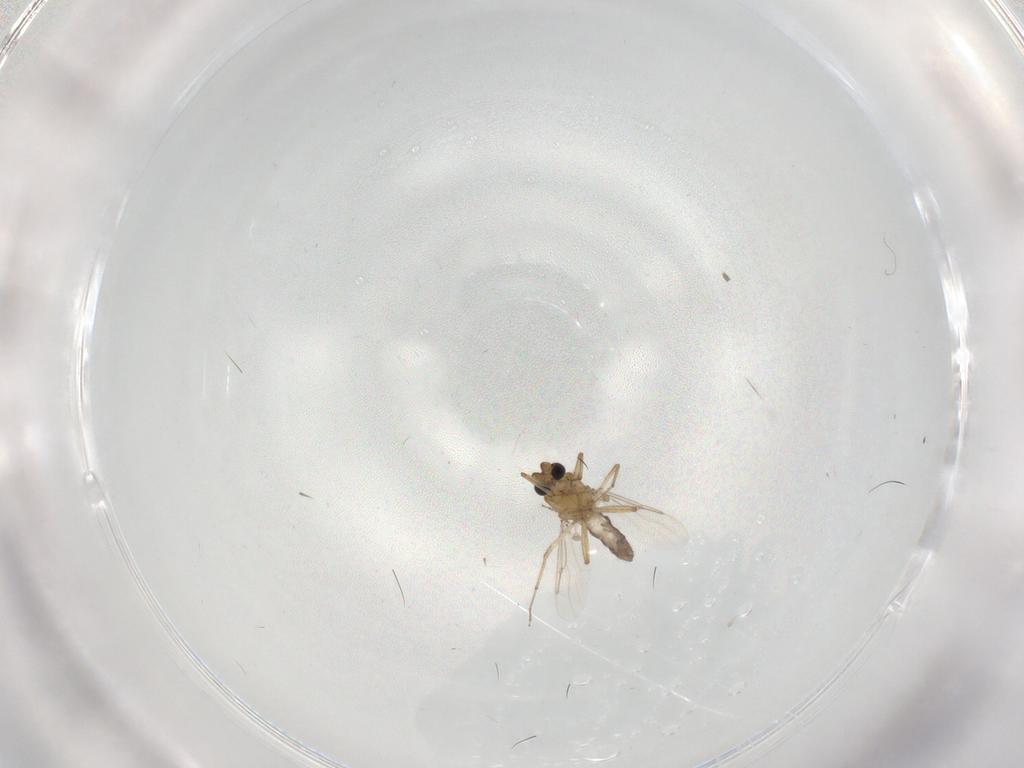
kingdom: Animalia
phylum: Arthropoda
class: Insecta
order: Diptera
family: Chironomidae
